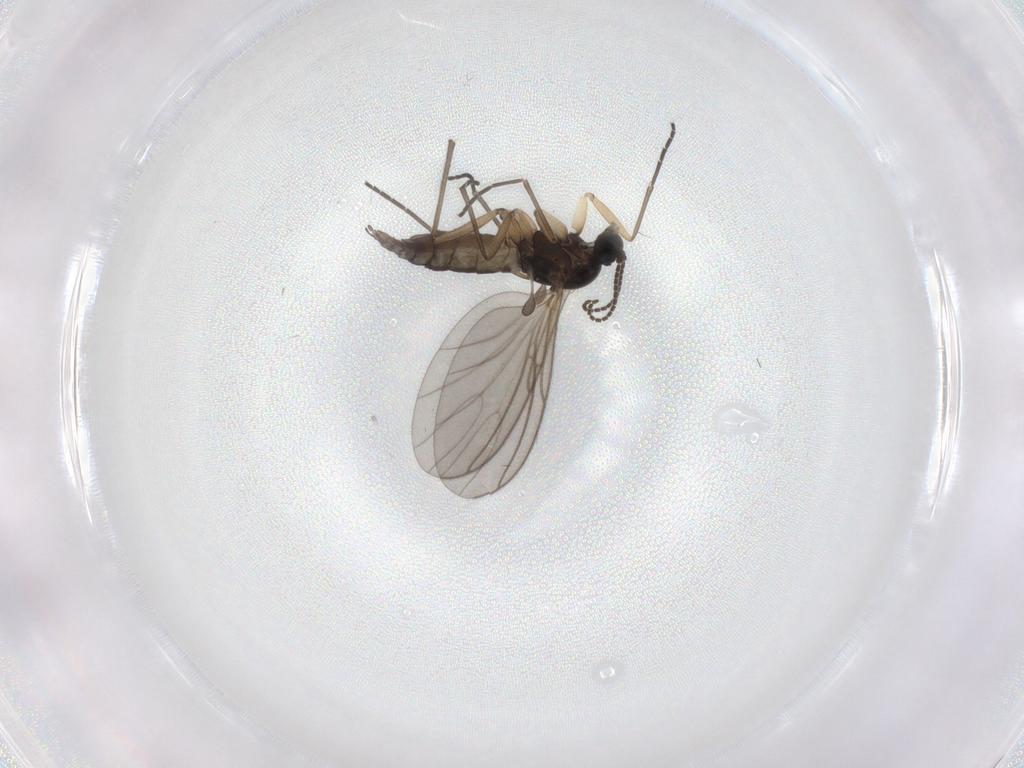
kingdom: Animalia
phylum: Arthropoda
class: Insecta
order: Diptera
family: Sciaridae
